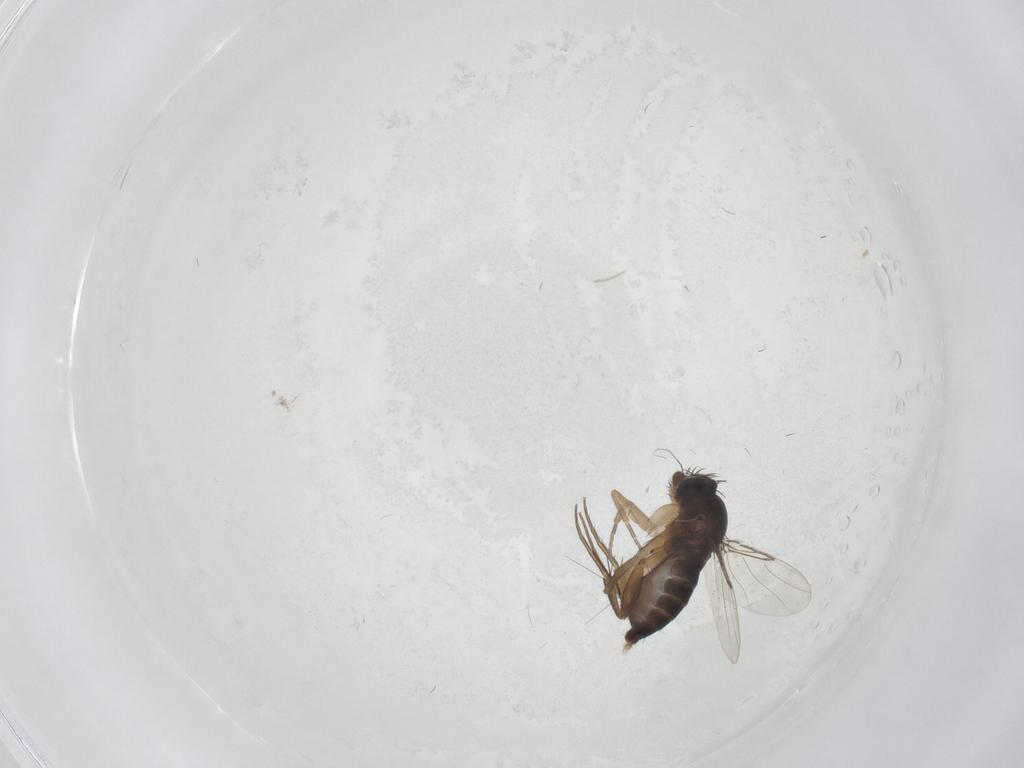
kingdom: Animalia
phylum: Arthropoda
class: Insecta
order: Diptera
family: Phoridae
